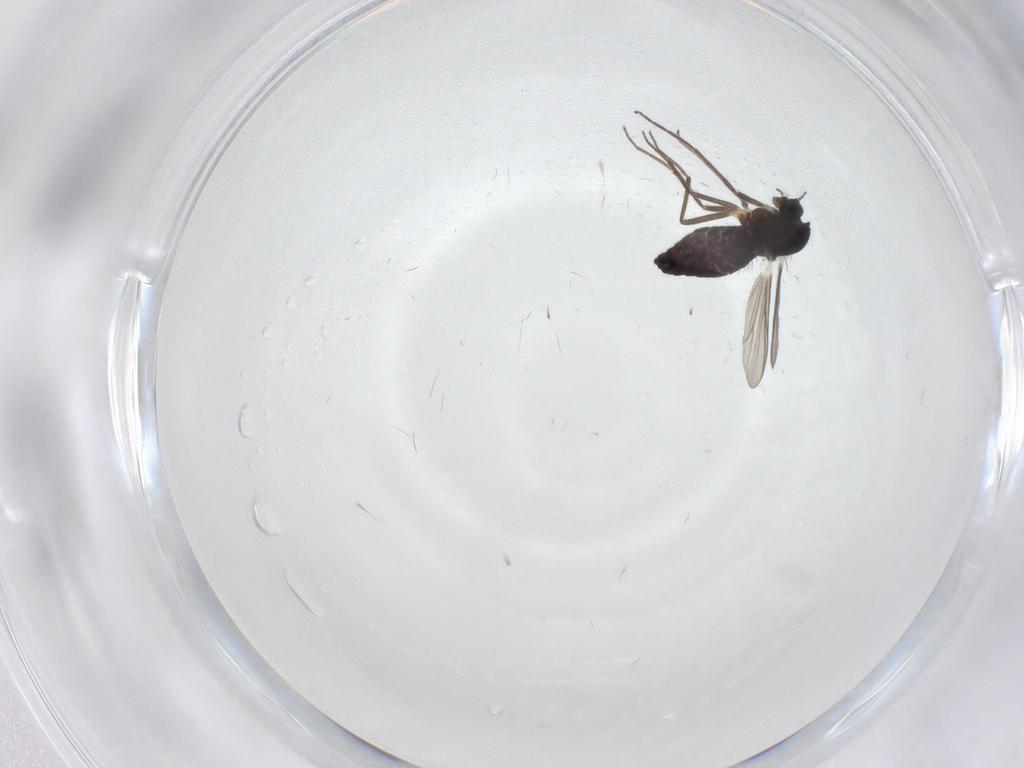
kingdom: Animalia
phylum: Arthropoda
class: Insecta
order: Diptera
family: Chironomidae
